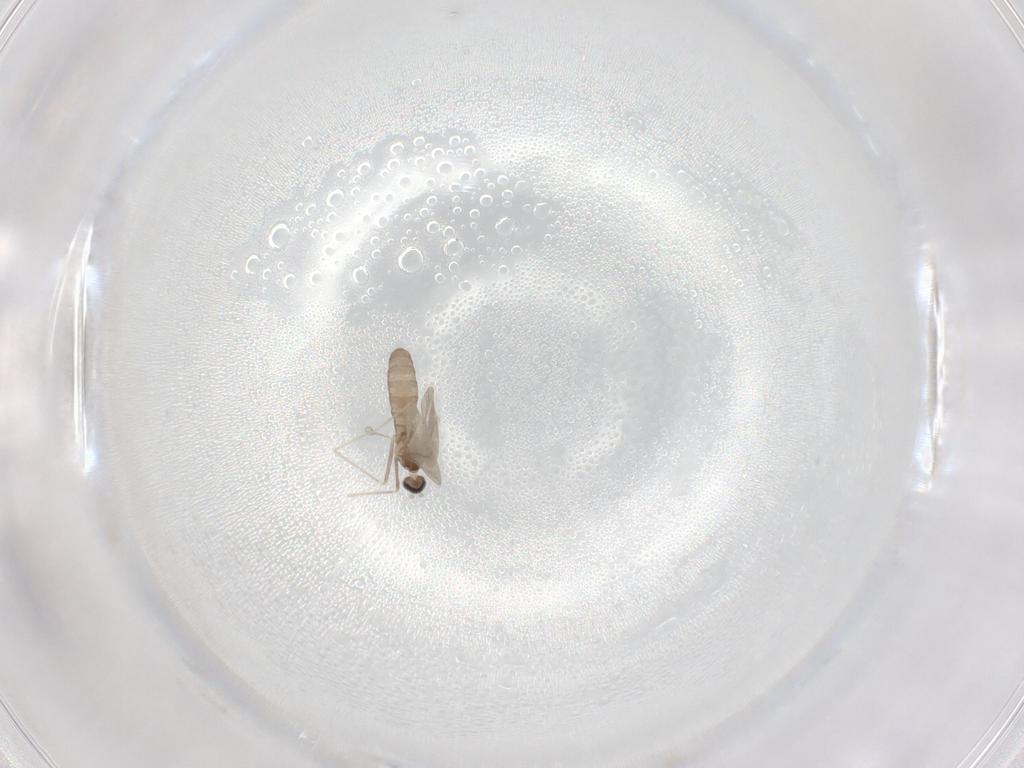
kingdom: Animalia
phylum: Arthropoda
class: Insecta
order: Diptera
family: Cecidomyiidae
